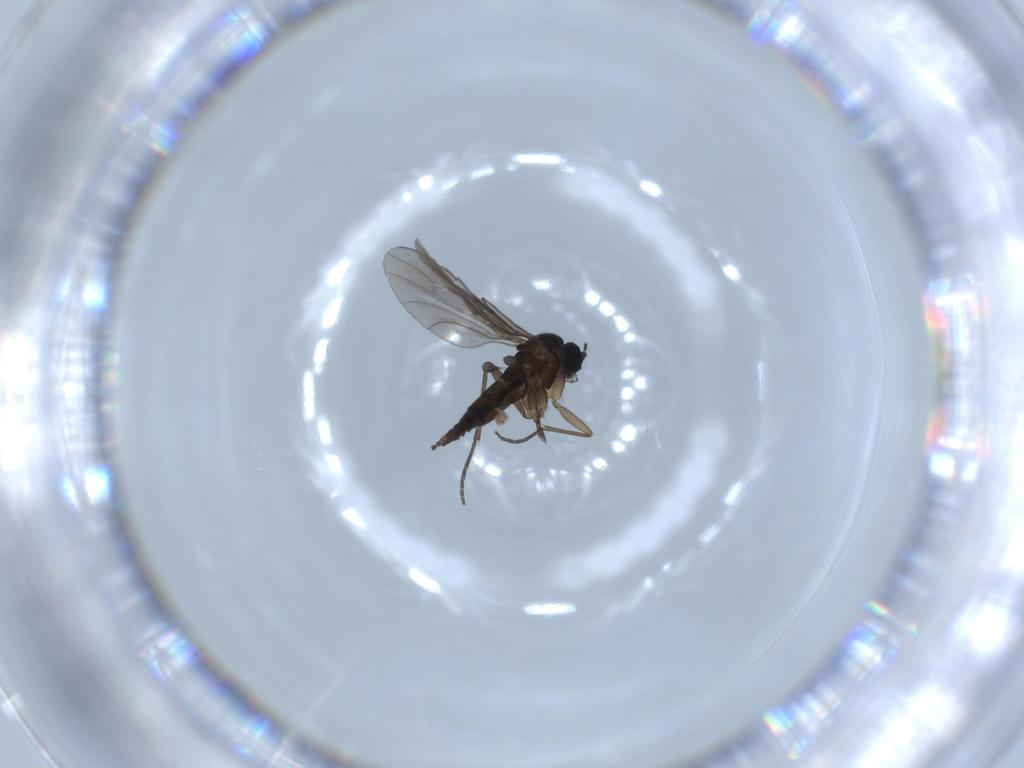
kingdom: Animalia
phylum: Arthropoda
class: Insecta
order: Diptera
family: Sciaridae
